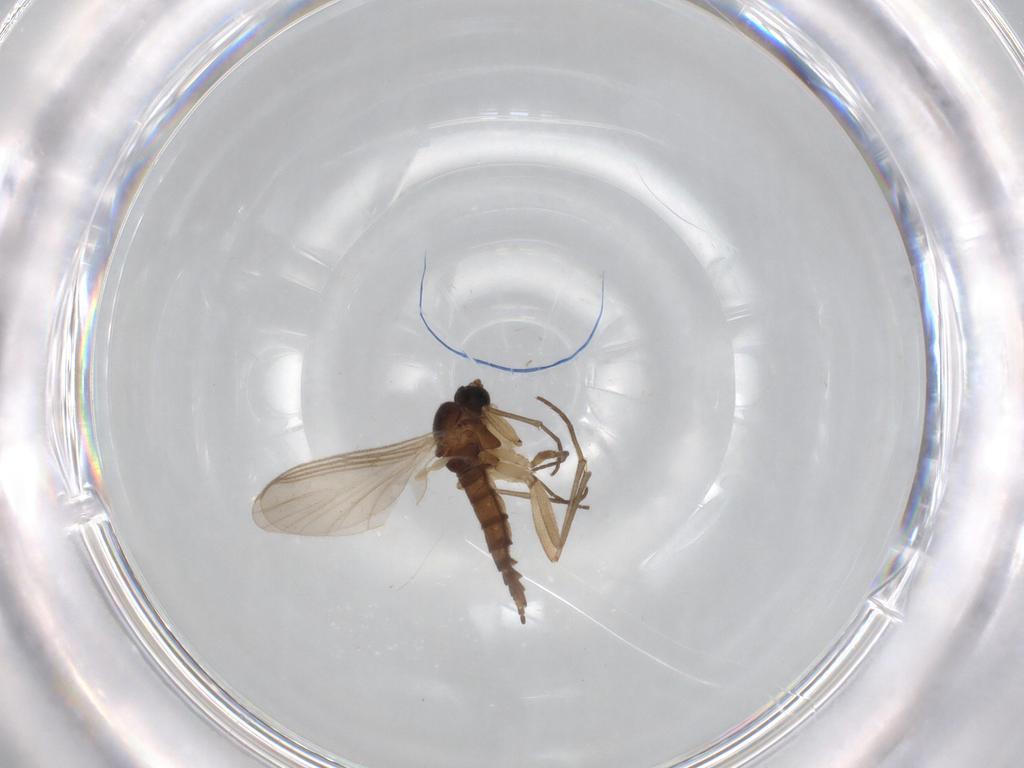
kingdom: Animalia
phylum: Arthropoda
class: Insecta
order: Diptera
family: Sciaridae
